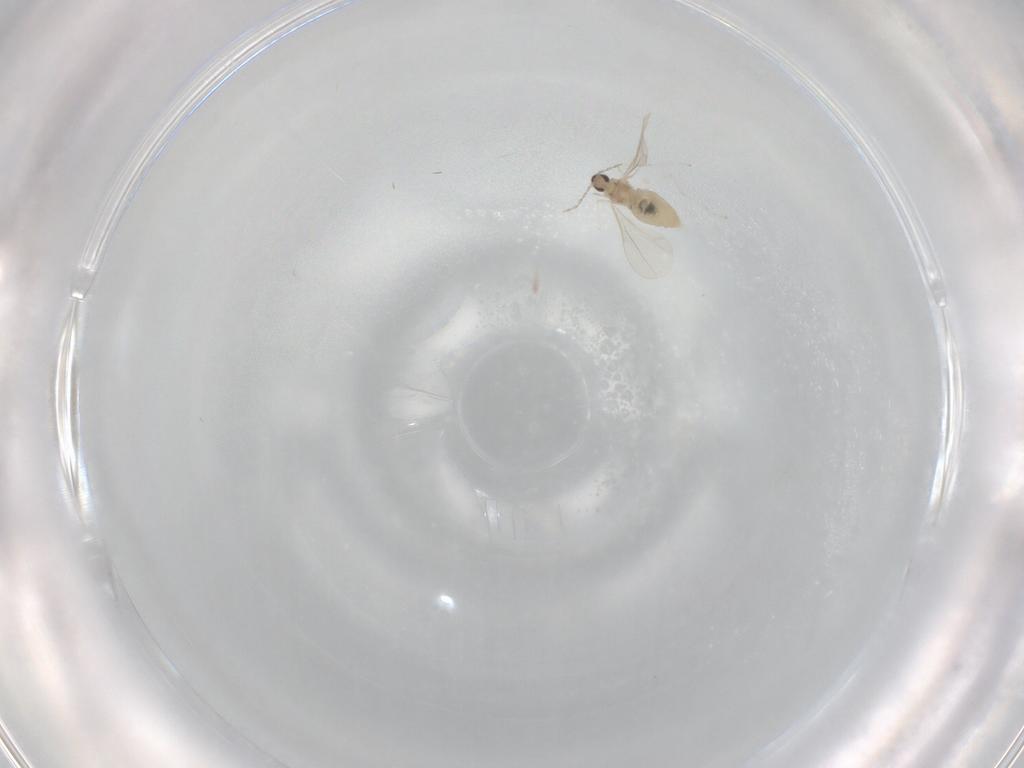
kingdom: Animalia
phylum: Arthropoda
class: Insecta
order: Diptera
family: Cecidomyiidae
